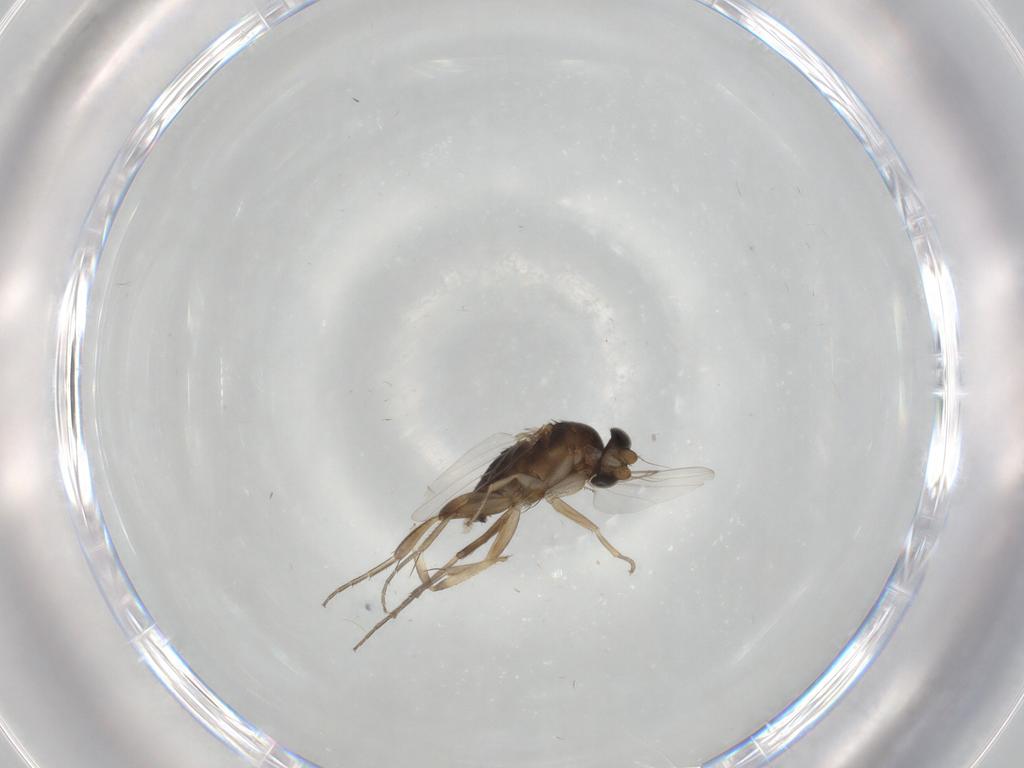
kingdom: Animalia
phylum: Arthropoda
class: Insecta
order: Diptera
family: Ceratopogonidae
